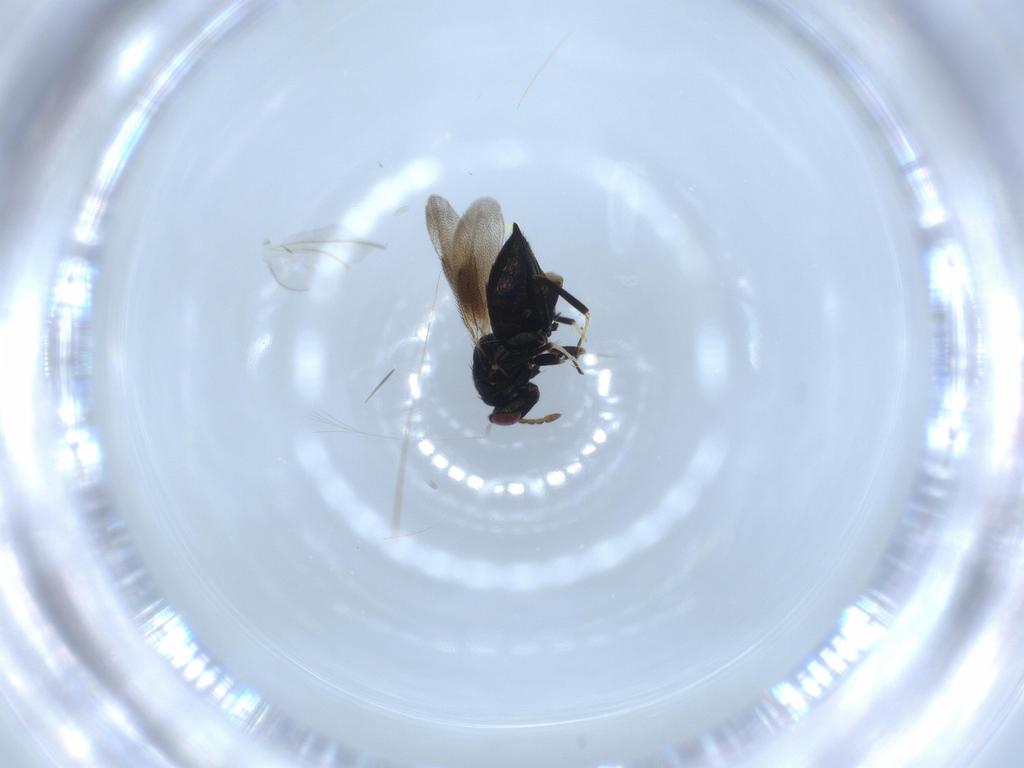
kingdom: Animalia
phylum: Arthropoda
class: Insecta
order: Hymenoptera
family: Eulophidae
